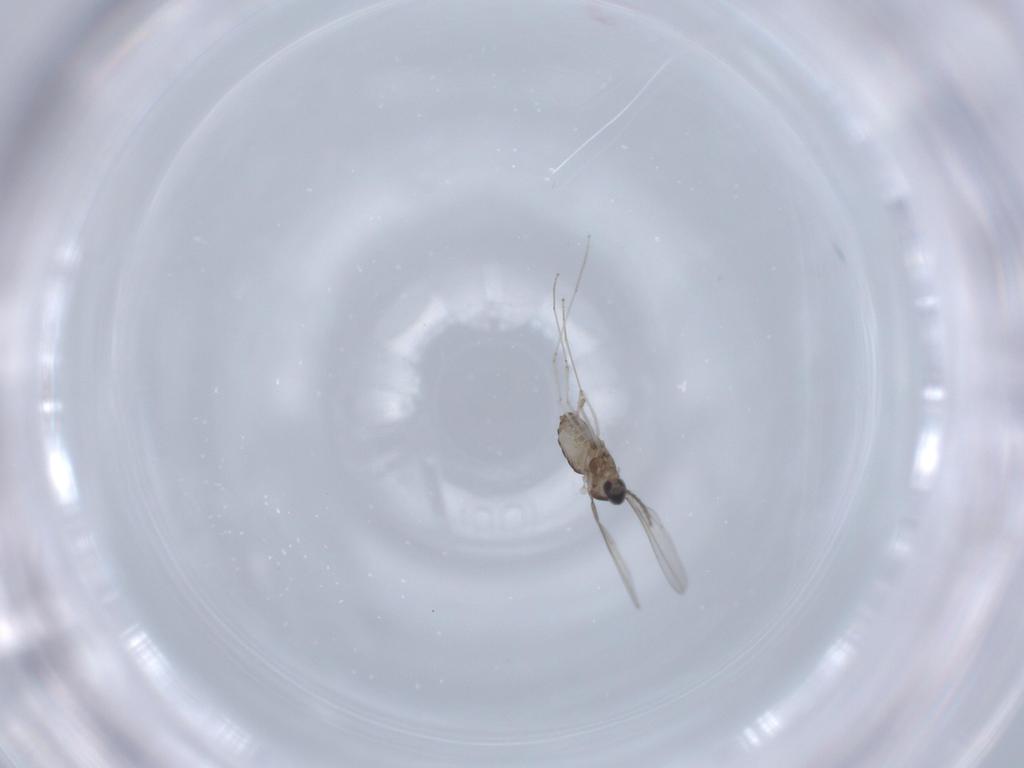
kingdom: Animalia
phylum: Arthropoda
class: Insecta
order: Diptera
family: Cecidomyiidae
